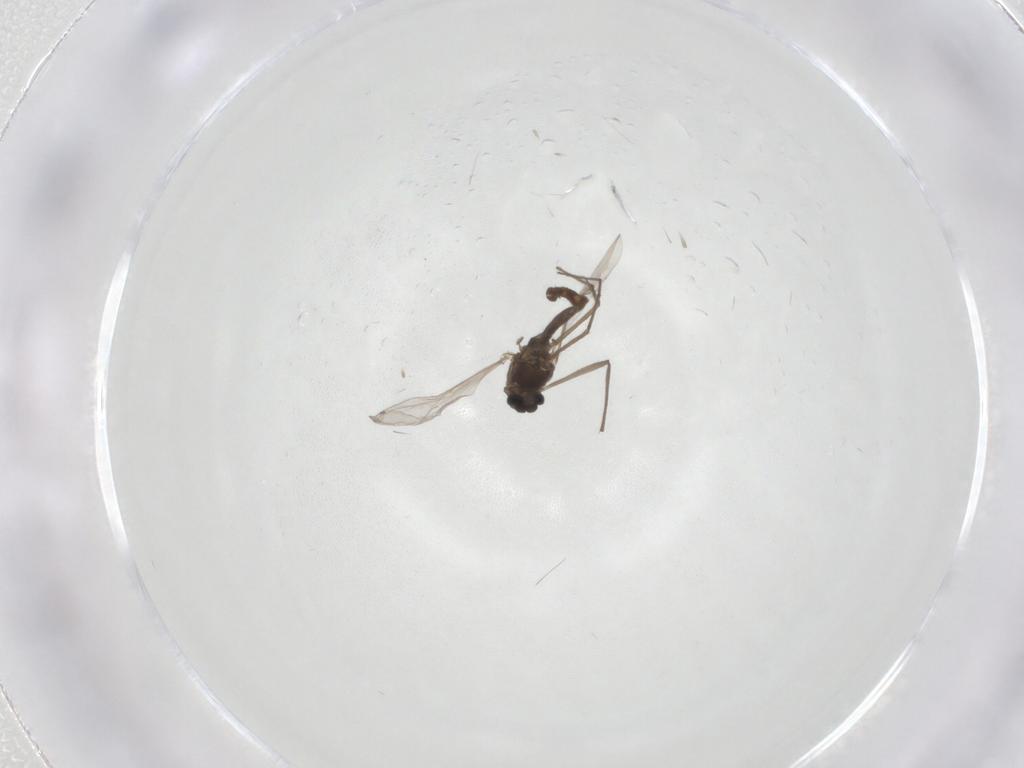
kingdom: Animalia
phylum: Arthropoda
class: Insecta
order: Diptera
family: Chironomidae
